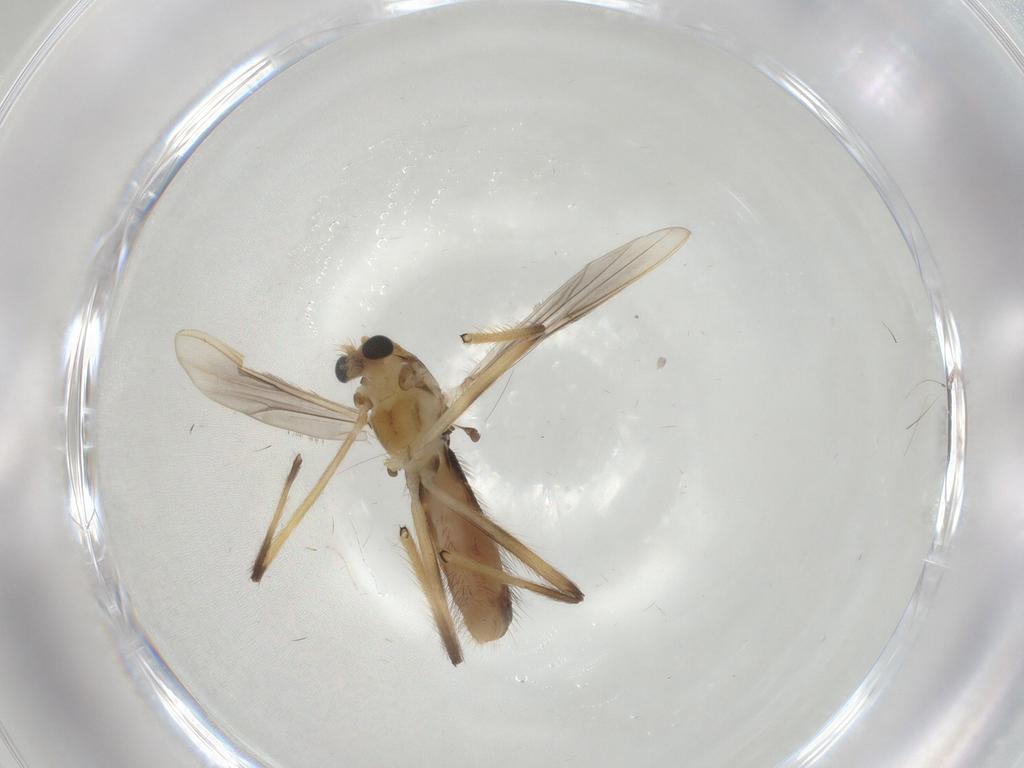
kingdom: Animalia
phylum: Arthropoda
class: Insecta
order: Diptera
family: Chironomidae
